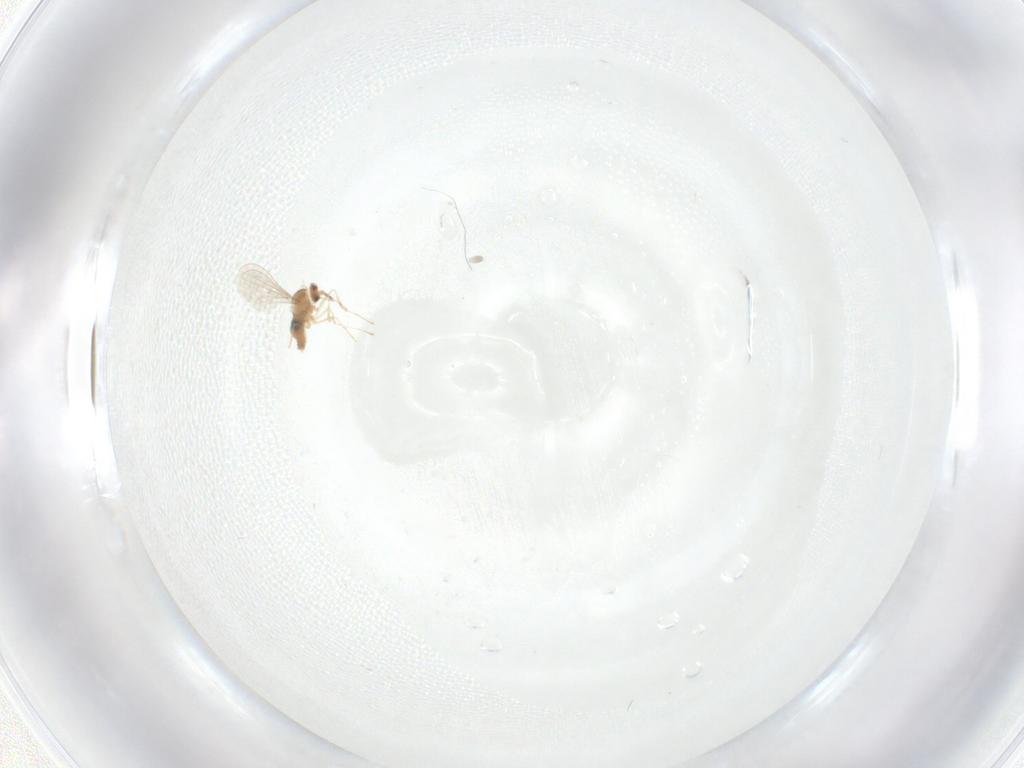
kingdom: Animalia
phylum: Arthropoda
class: Insecta
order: Diptera
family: Cecidomyiidae
